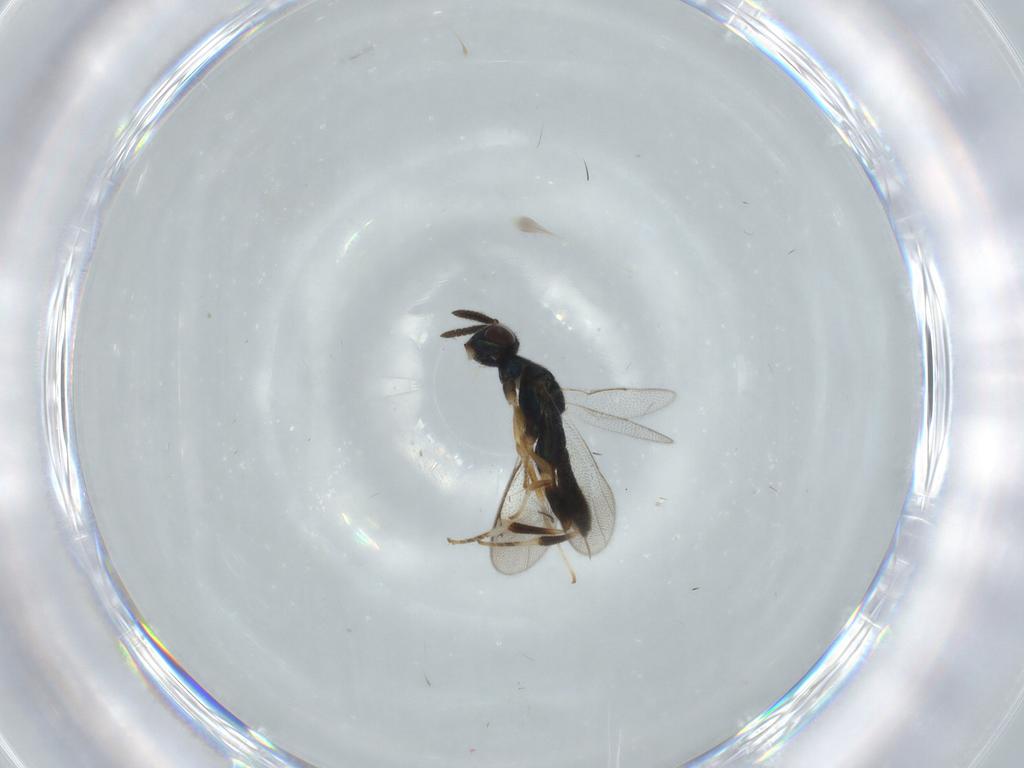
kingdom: Animalia
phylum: Arthropoda
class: Insecta
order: Hymenoptera
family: Cleonyminae
